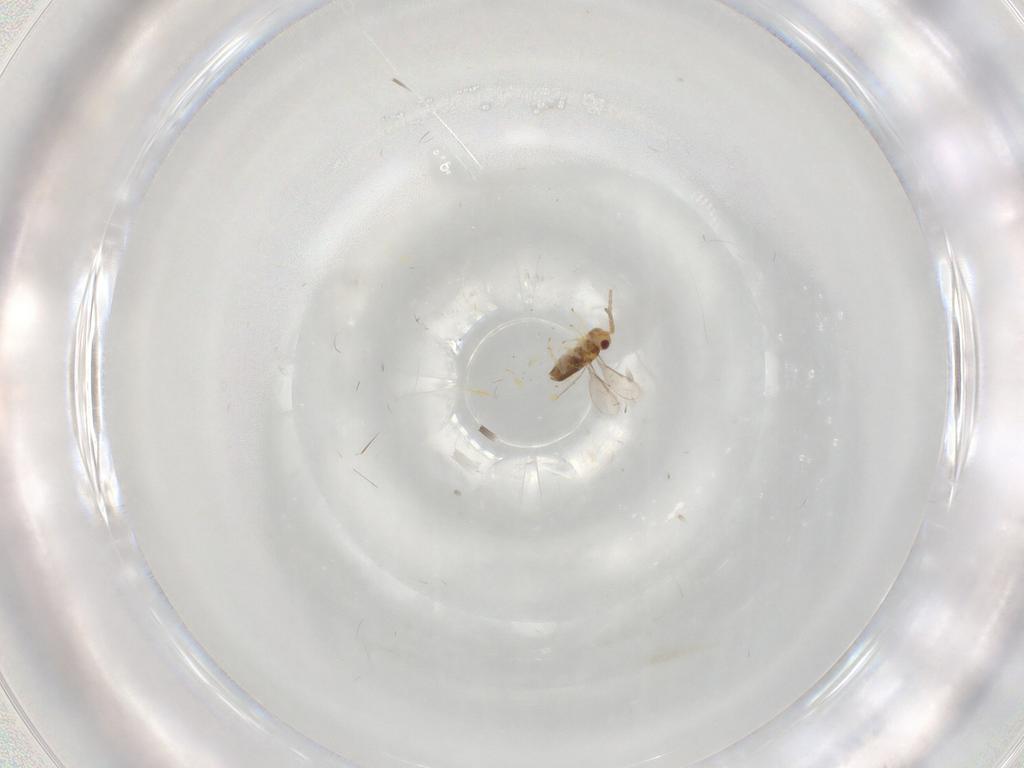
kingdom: Animalia
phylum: Arthropoda
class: Insecta
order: Hymenoptera
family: Aphelinidae
